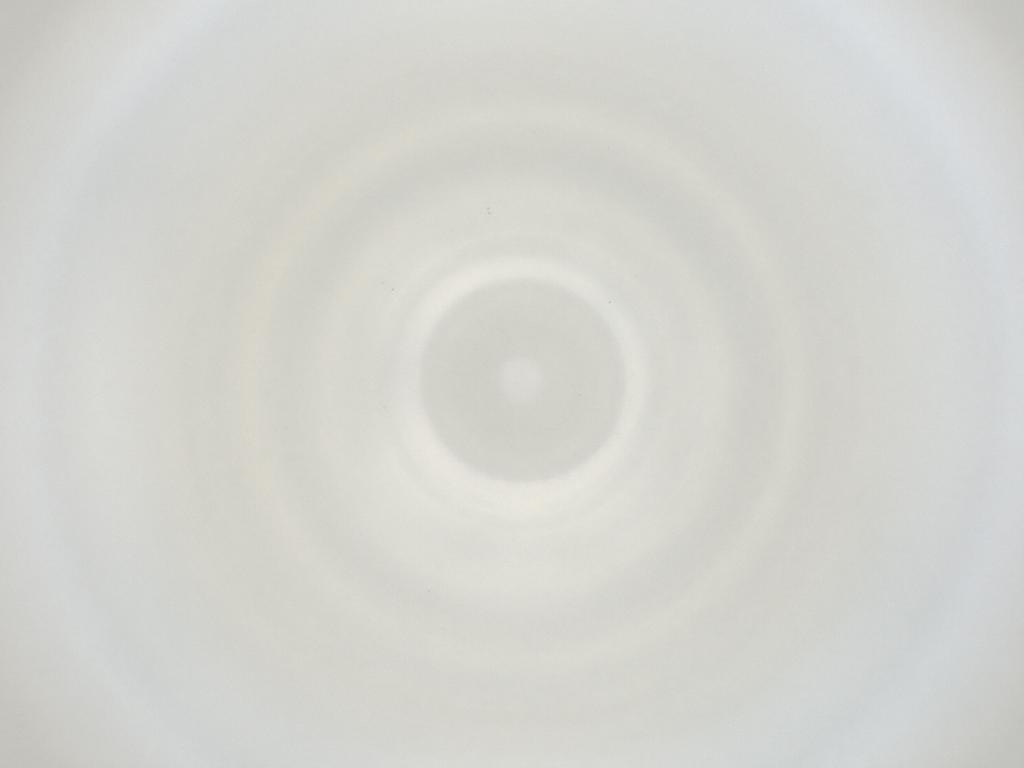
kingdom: Animalia
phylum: Arthropoda
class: Insecta
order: Diptera
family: Cecidomyiidae
